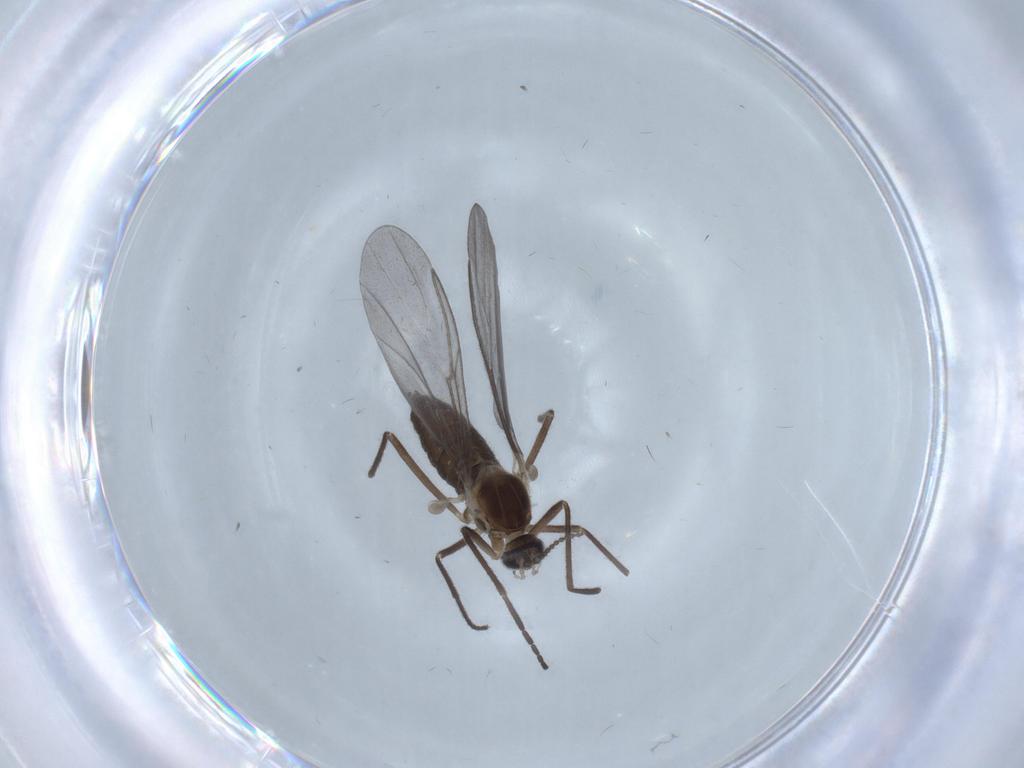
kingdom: Animalia
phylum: Arthropoda
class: Insecta
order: Diptera
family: Cecidomyiidae
